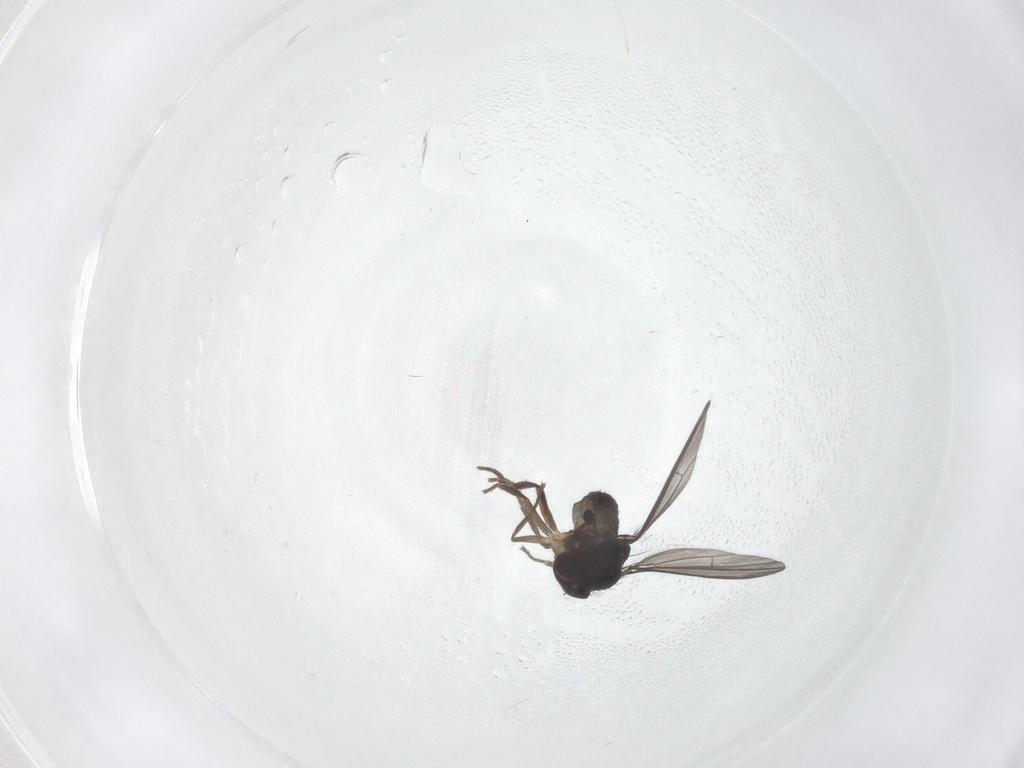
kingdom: Animalia
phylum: Arthropoda
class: Insecta
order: Diptera
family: Dolichopodidae
